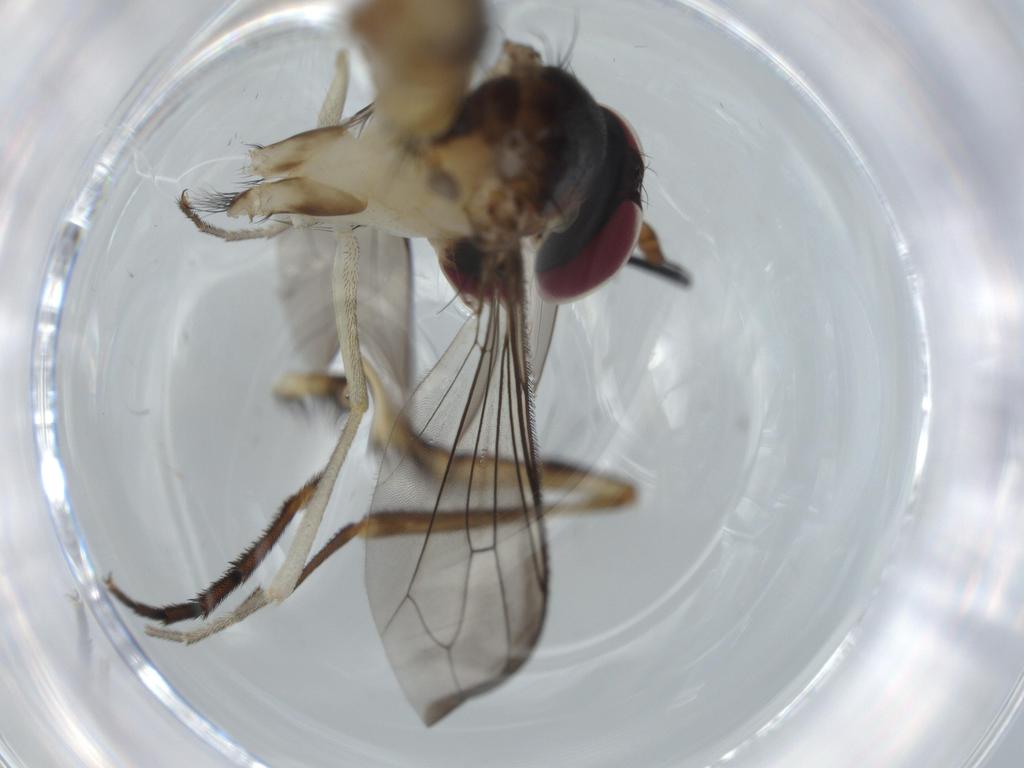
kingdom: Animalia
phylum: Arthropoda
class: Insecta
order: Diptera
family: Conopidae
